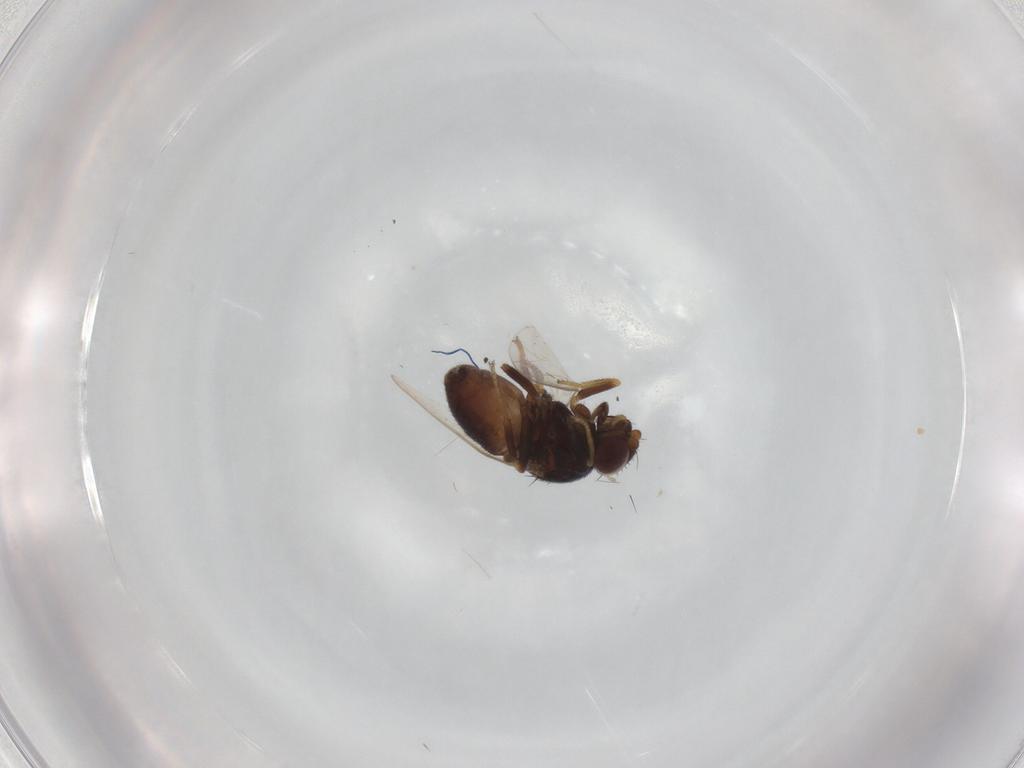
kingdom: Animalia
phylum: Arthropoda
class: Insecta
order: Diptera
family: Chloropidae
